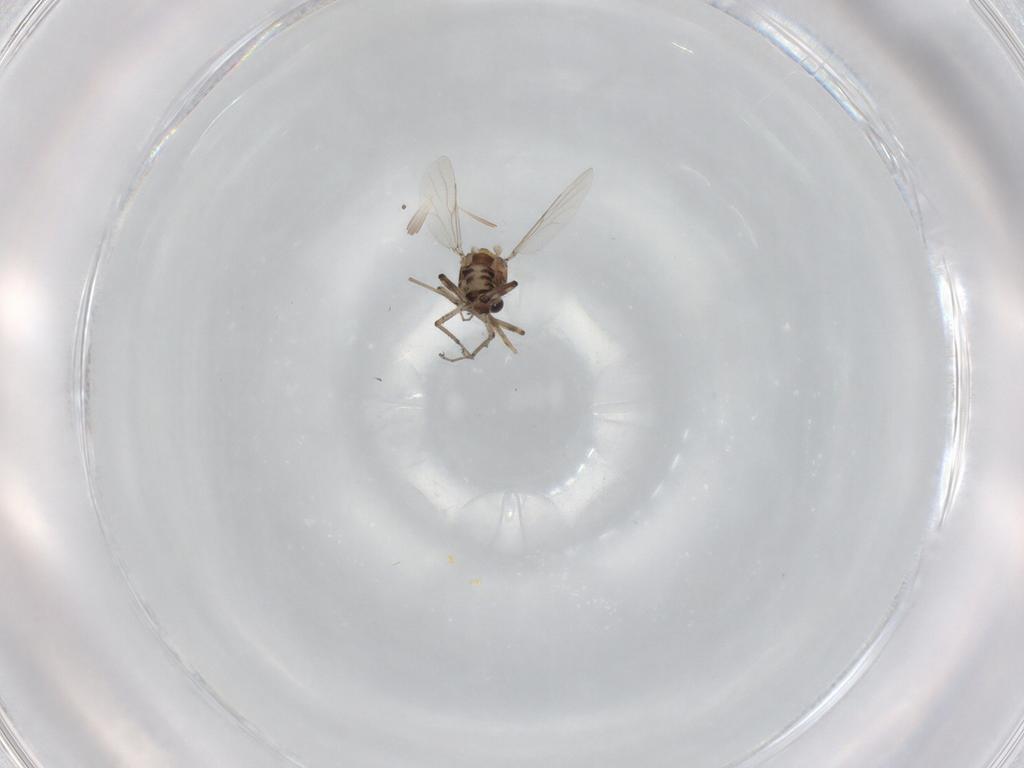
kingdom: Animalia
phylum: Arthropoda
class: Insecta
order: Diptera
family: Cecidomyiidae
